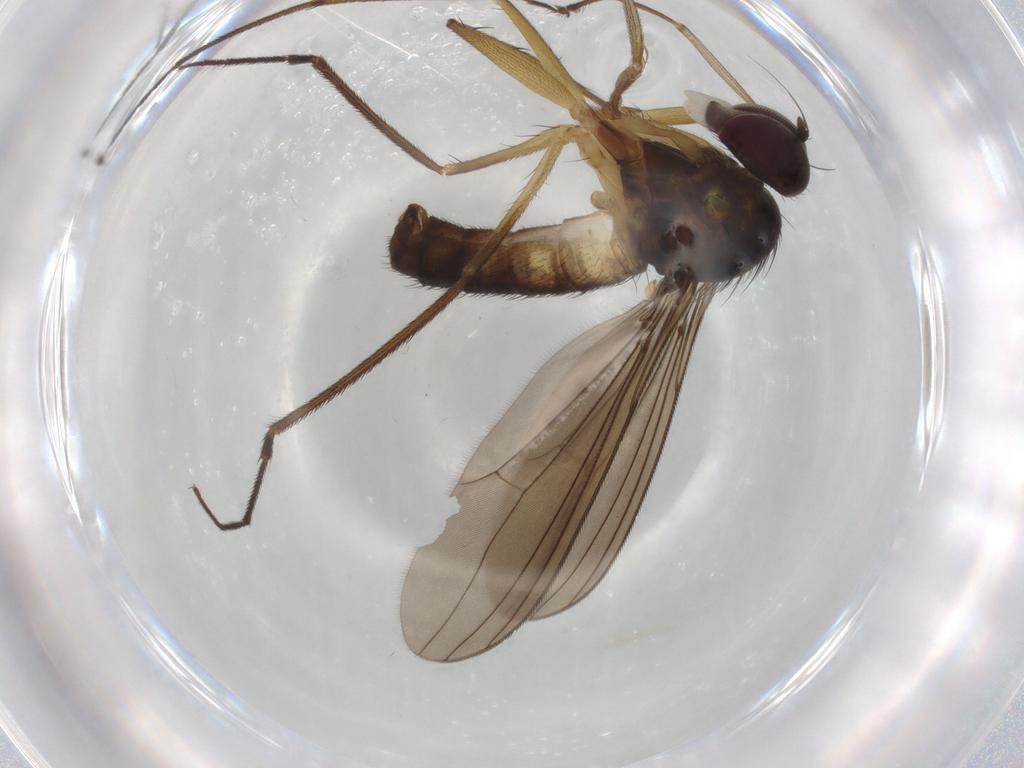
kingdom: Animalia
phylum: Arthropoda
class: Insecta
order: Diptera
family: Dolichopodidae
